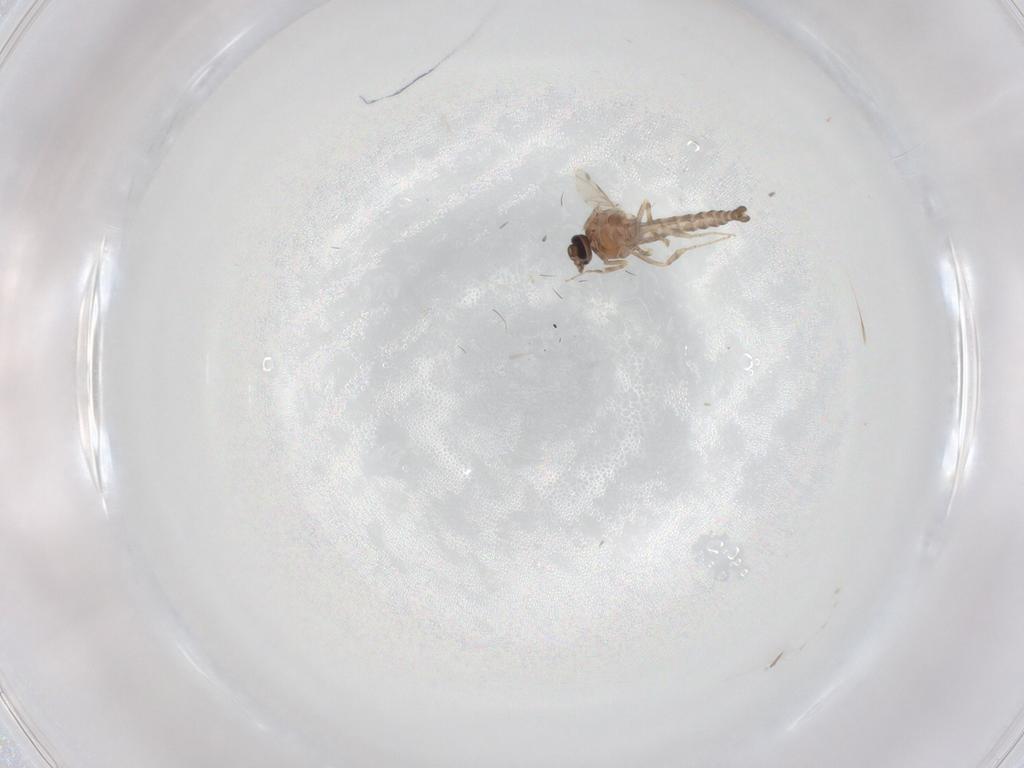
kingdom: Animalia
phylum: Arthropoda
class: Insecta
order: Diptera
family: Ceratopogonidae
